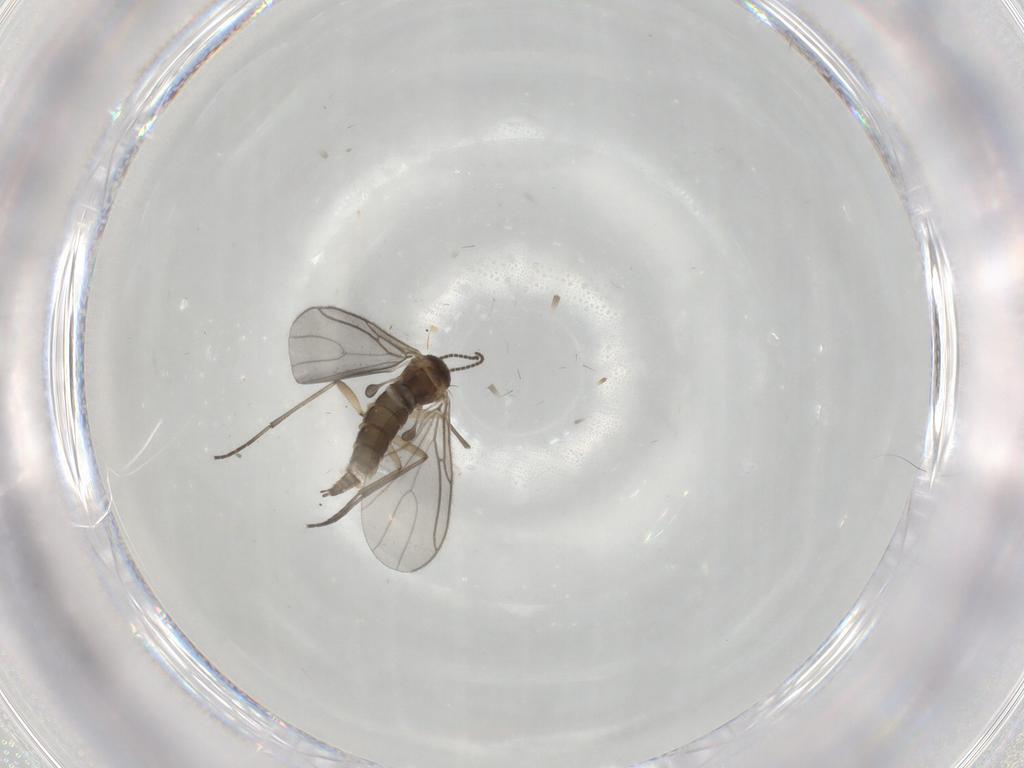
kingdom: Animalia
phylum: Arthropoda
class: Insecta
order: Diptera
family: Sciaridae
